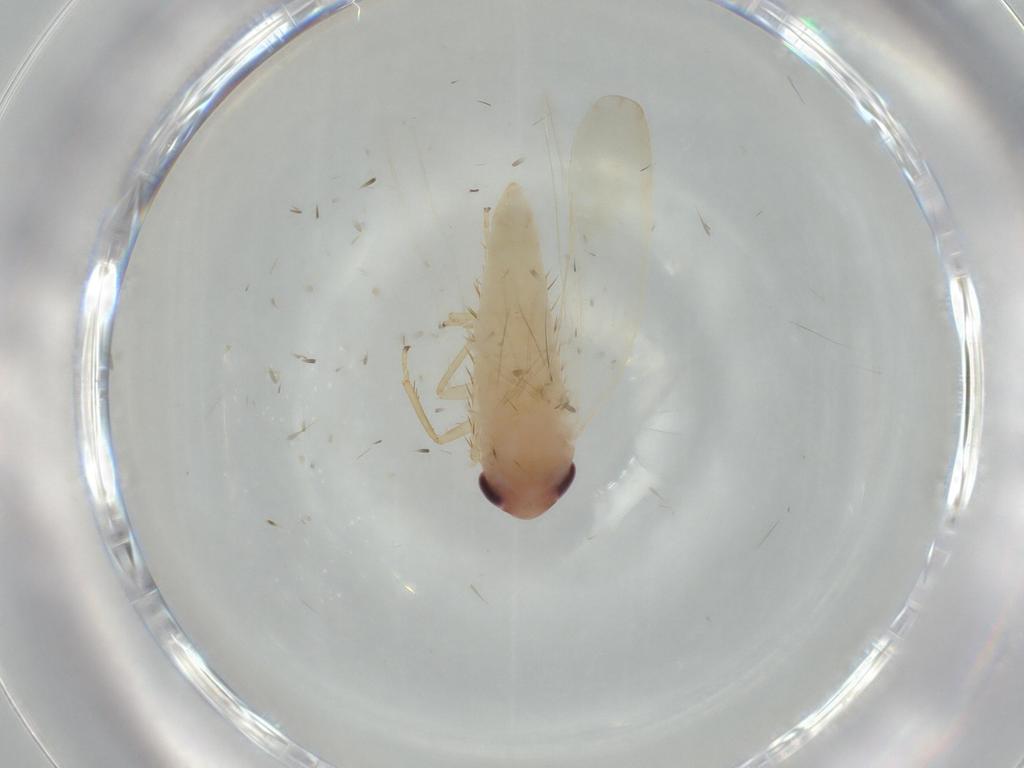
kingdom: Animalia
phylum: Arthropoda
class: Insecta
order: Hemiptera
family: Cicadellidae
